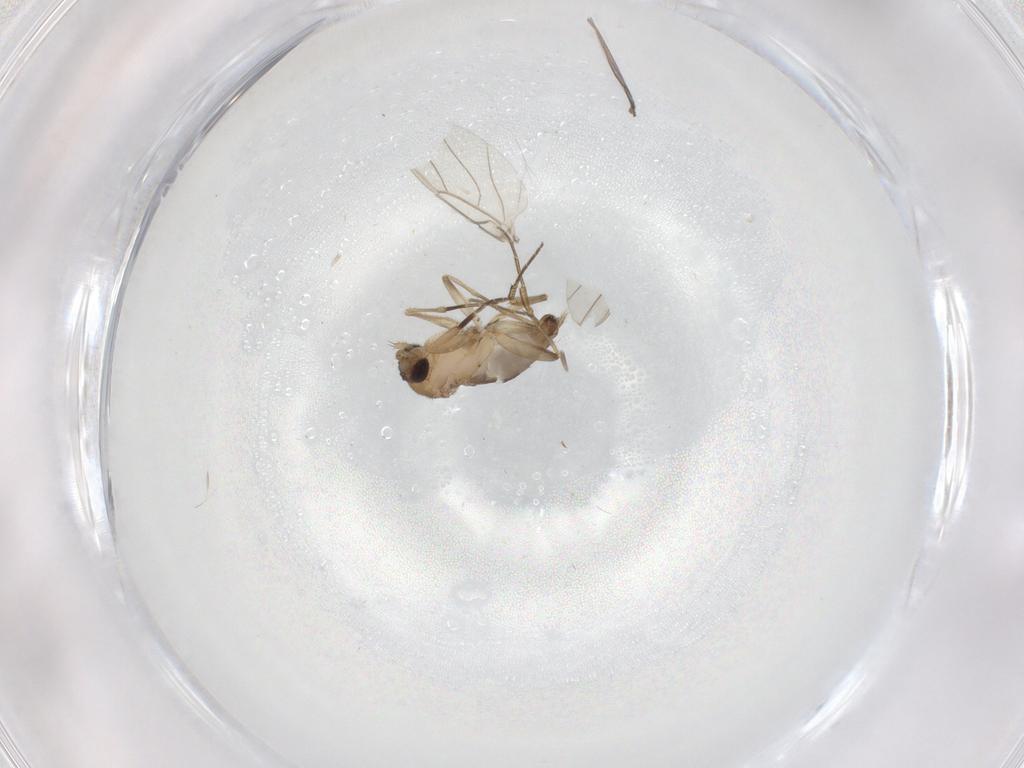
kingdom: Animalia
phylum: Arthropoda
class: Insecta
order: Diptera
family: Phoridae
